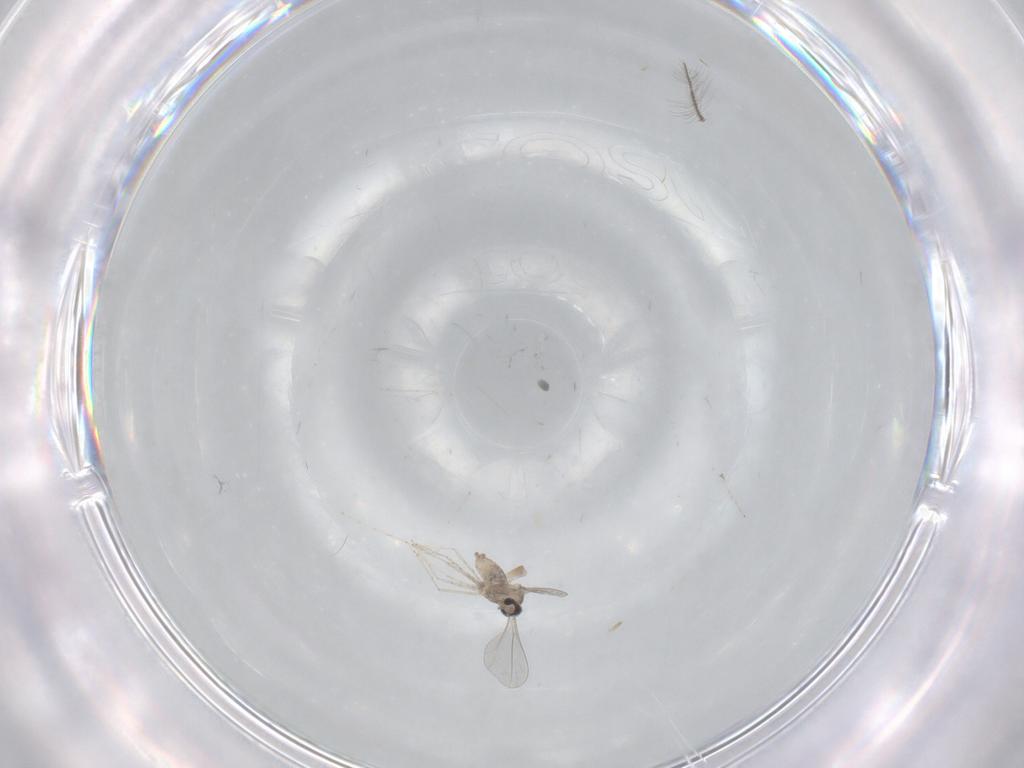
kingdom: Animalia
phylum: Arthropoda
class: Insecta
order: Diptera
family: Cecidomyiidae
